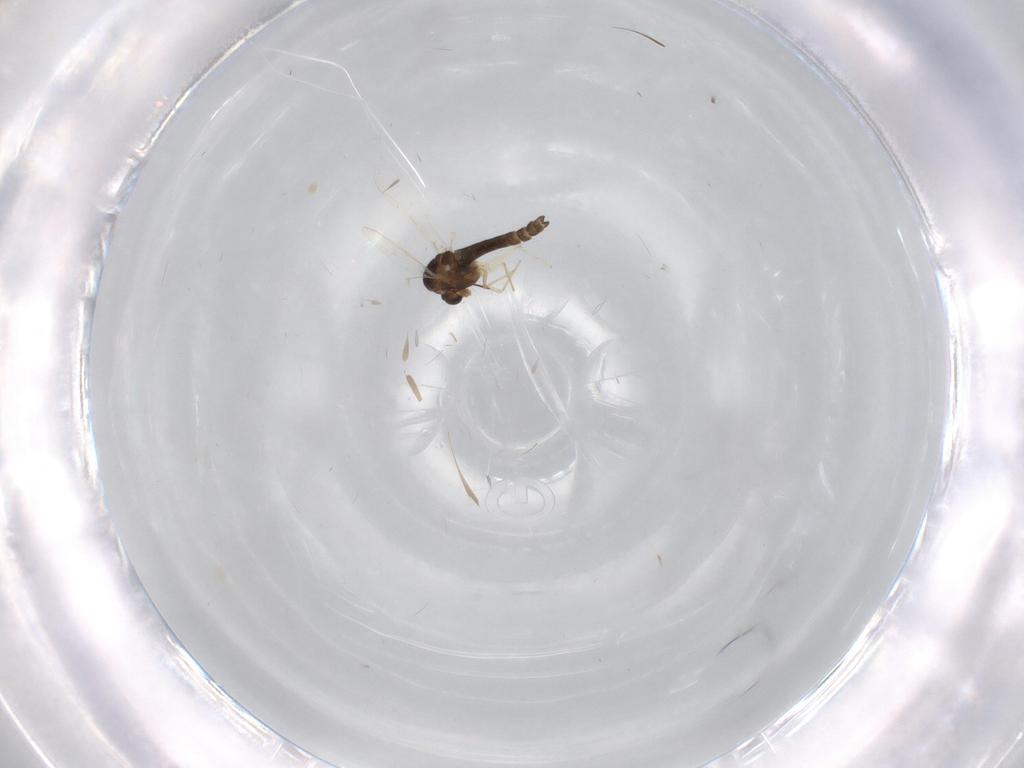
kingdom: Animalia
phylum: Arthropoda
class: Insecta
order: Diptera
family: Chironomidae
